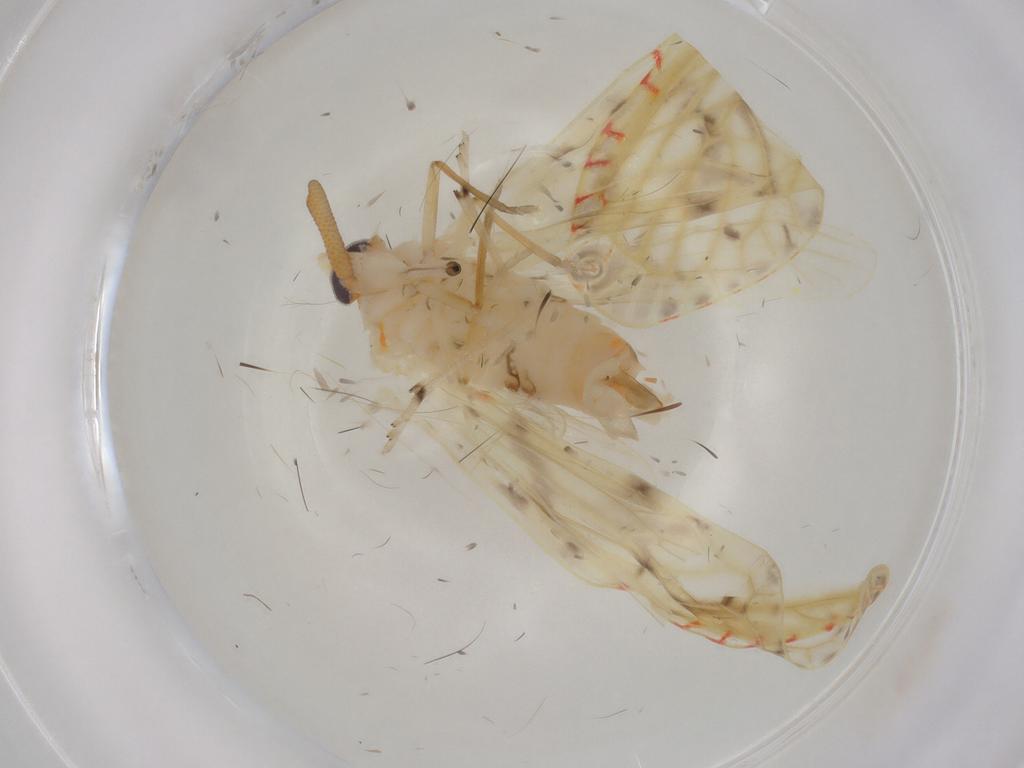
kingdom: Animalia
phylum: Arthropoda
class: Insecta
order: Hemiptera
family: Derbidae
